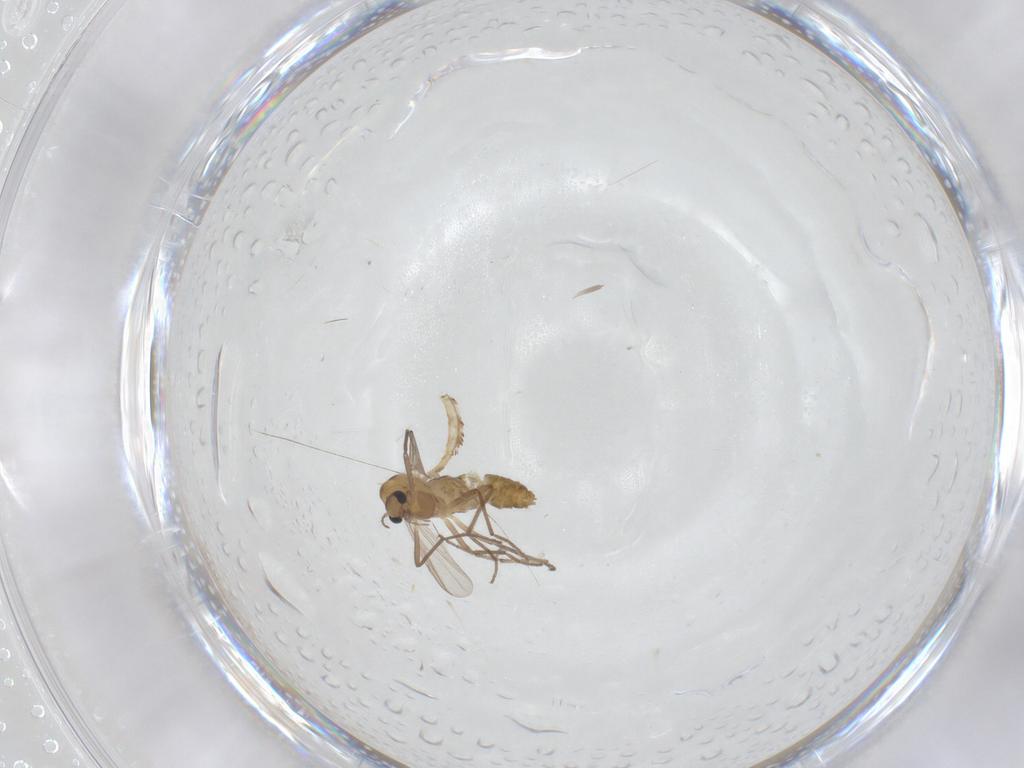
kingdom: Animalia
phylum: Arthropoda
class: Insecta
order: Diptera
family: Chironomidae
